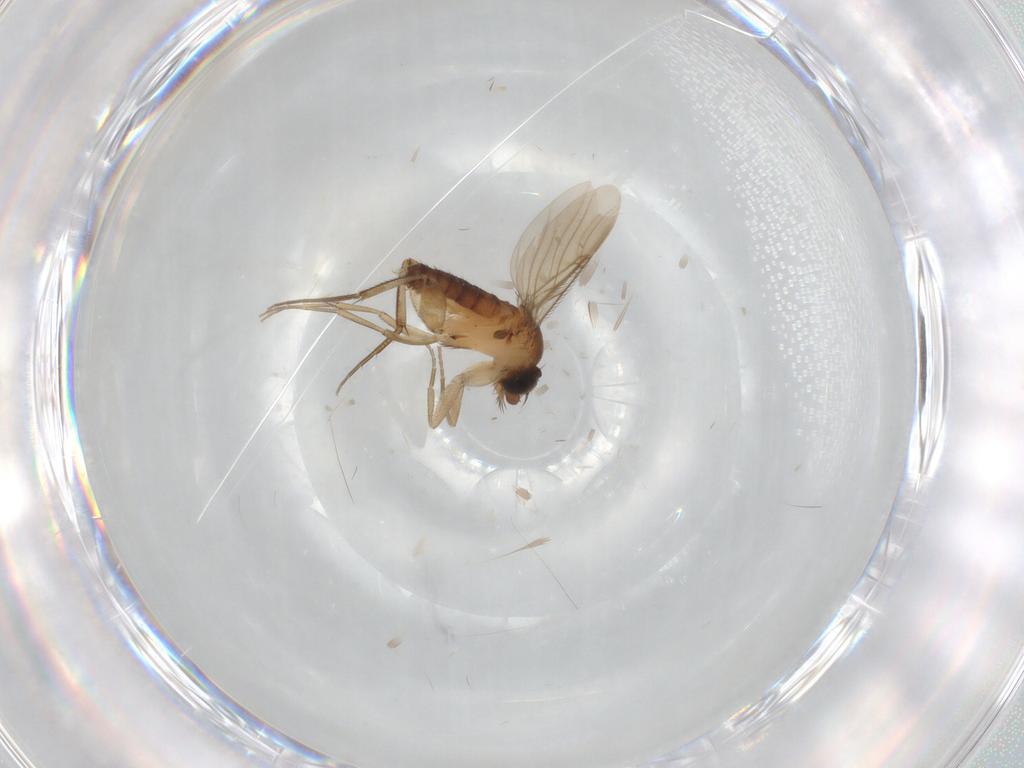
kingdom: Animalia
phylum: Arthropoda
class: Insecta
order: Diptera
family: Phoridae
